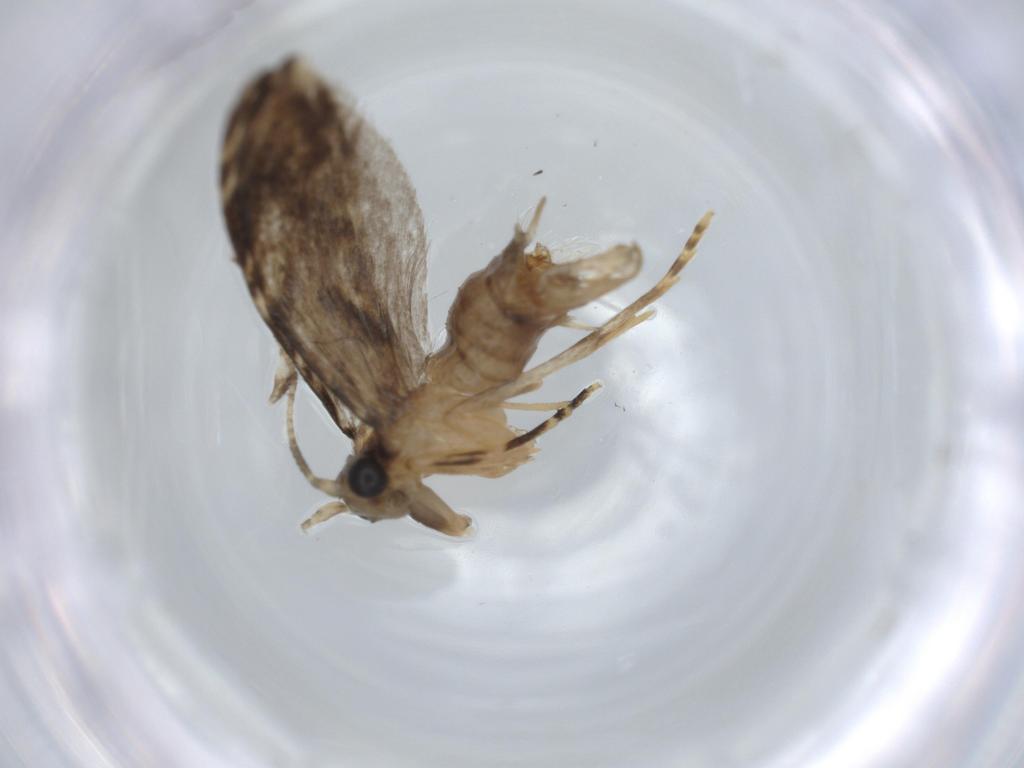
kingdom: Animalia
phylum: Arthropoda
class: Insecta
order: Lepidoptera
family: Tineidae
